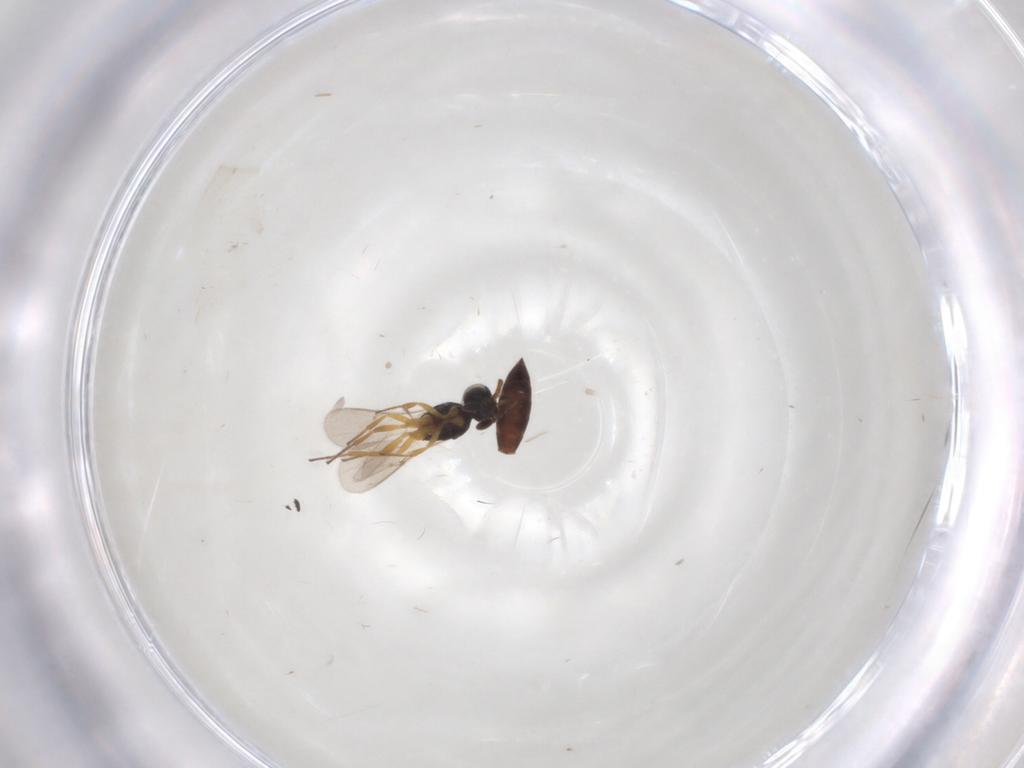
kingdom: Animalia
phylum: Arthropoda
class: Insecta
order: Hymenoptera
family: Scelionidae
